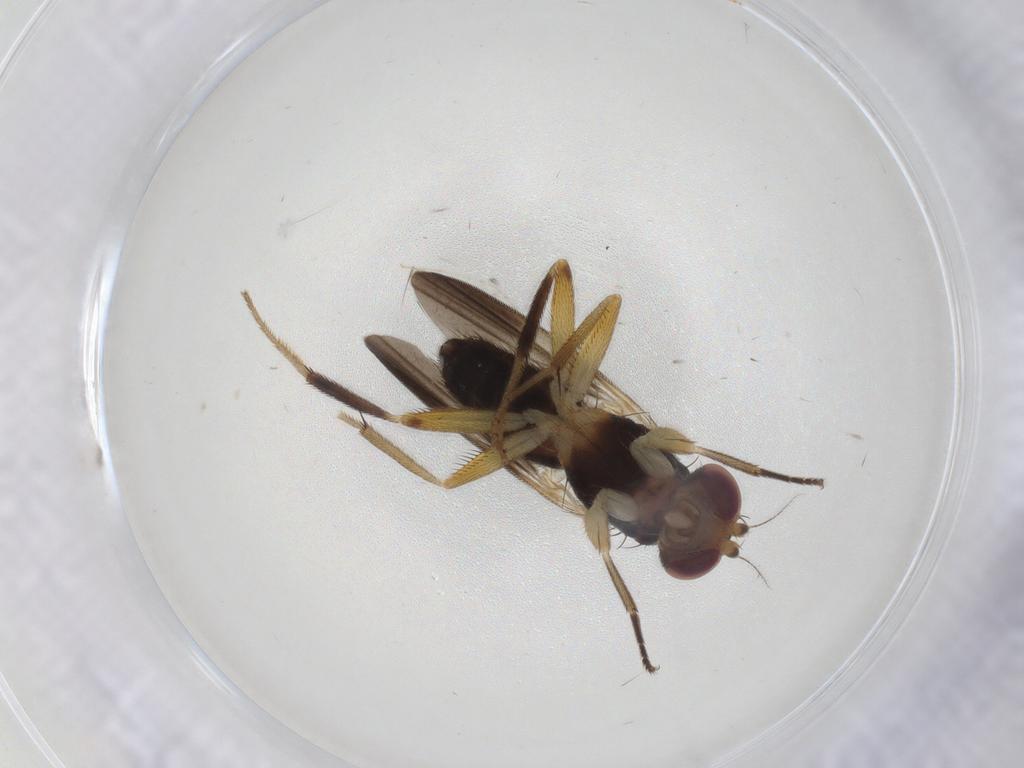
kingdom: Animalia
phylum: Arthropoda
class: Insecta
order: Diptera
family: Clusiidae
